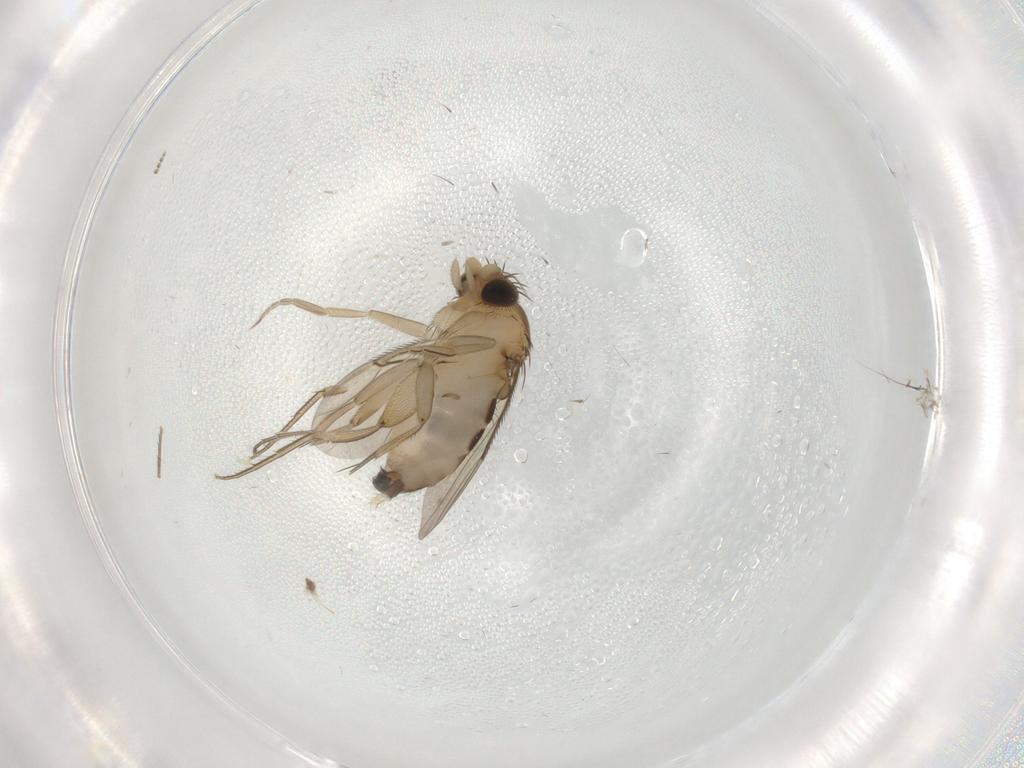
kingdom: Animalia
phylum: Arthropoda
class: Insecta
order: Diptera
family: Phoridae
